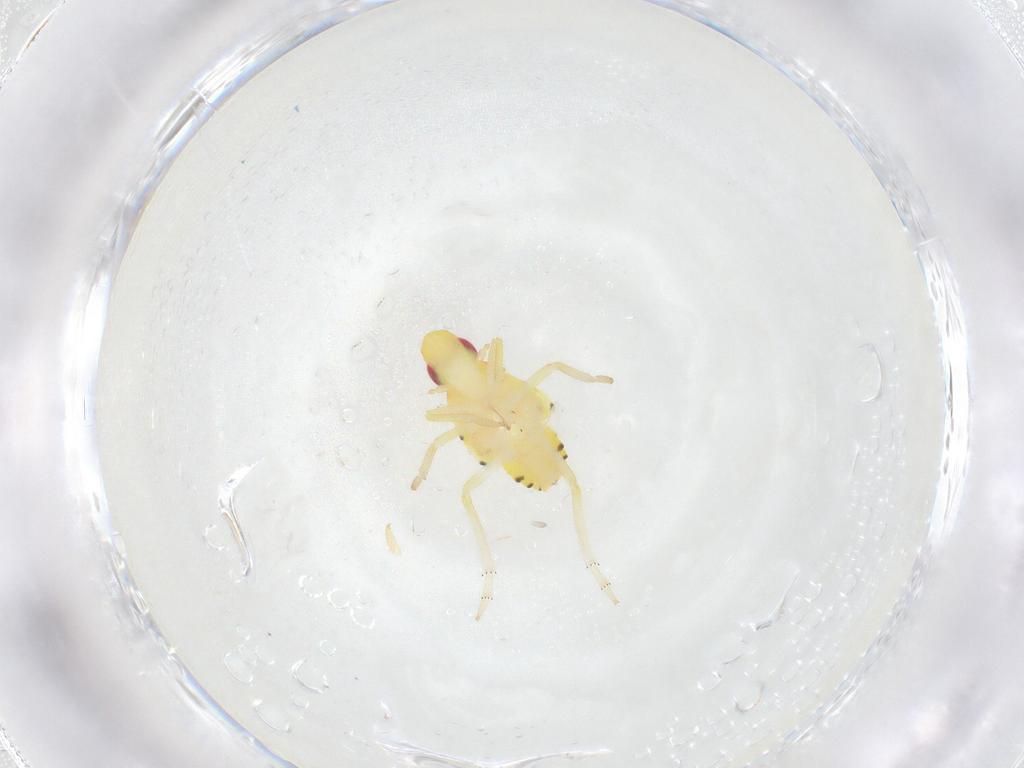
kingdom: Animalia
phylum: Arthropoda
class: Insecta
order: Hemiptera
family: Tropiduchidae
